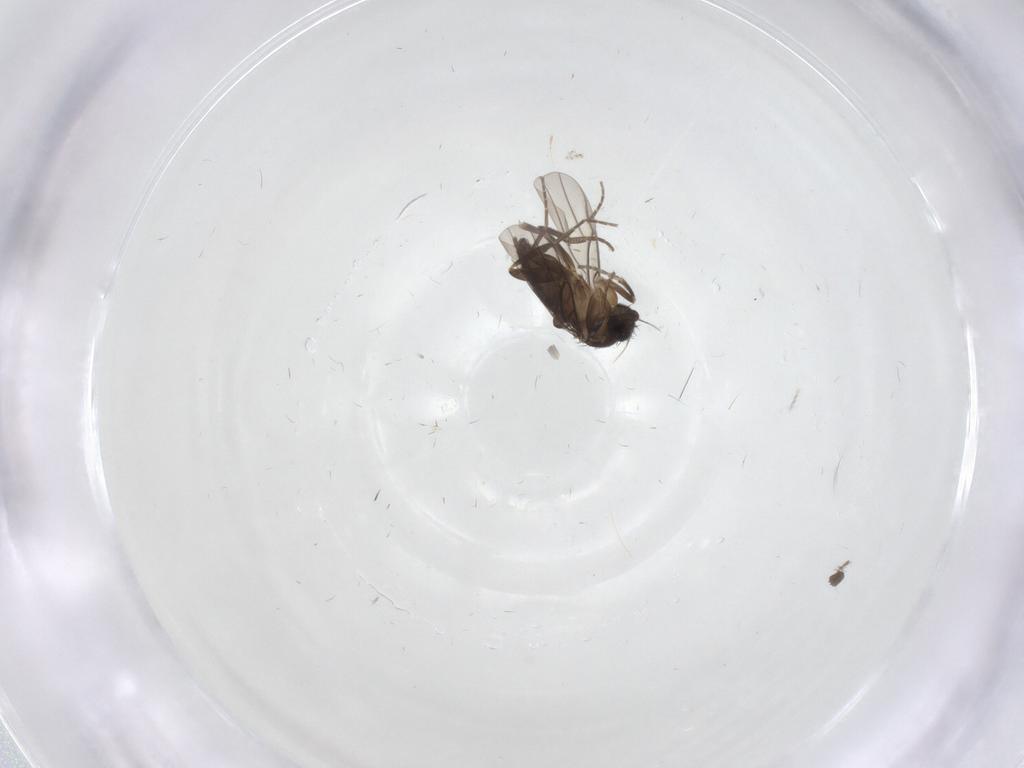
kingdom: Animalia
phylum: Arthropoda
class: Insecta
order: Diptera
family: Phoridae
